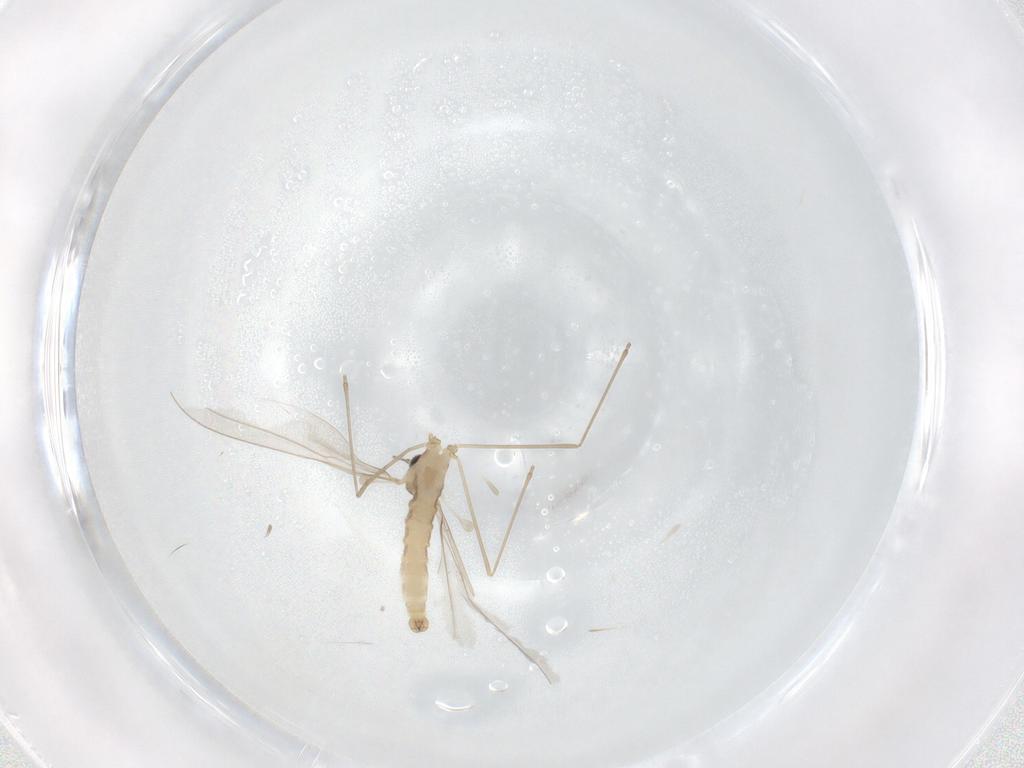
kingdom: Animalia
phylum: Arthropoda
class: Insecta
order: Diptera
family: Cecidomyiidae
